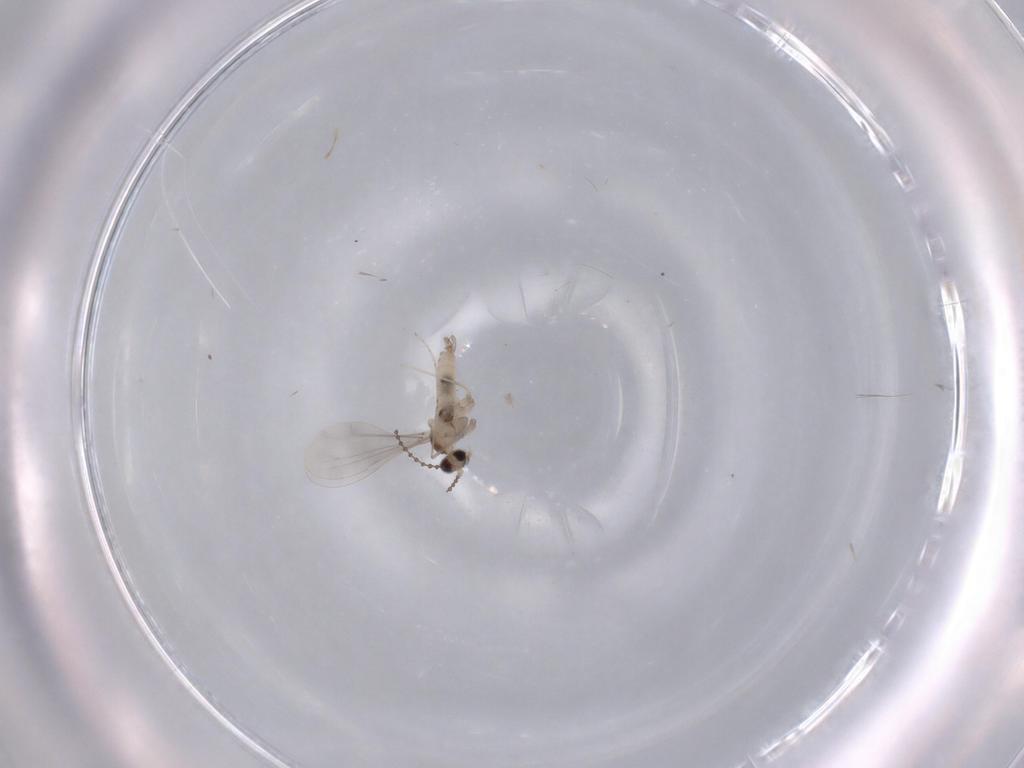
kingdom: Animalia
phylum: Arthropoda
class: Insecta
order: Diptera
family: Cecidomyiidae
